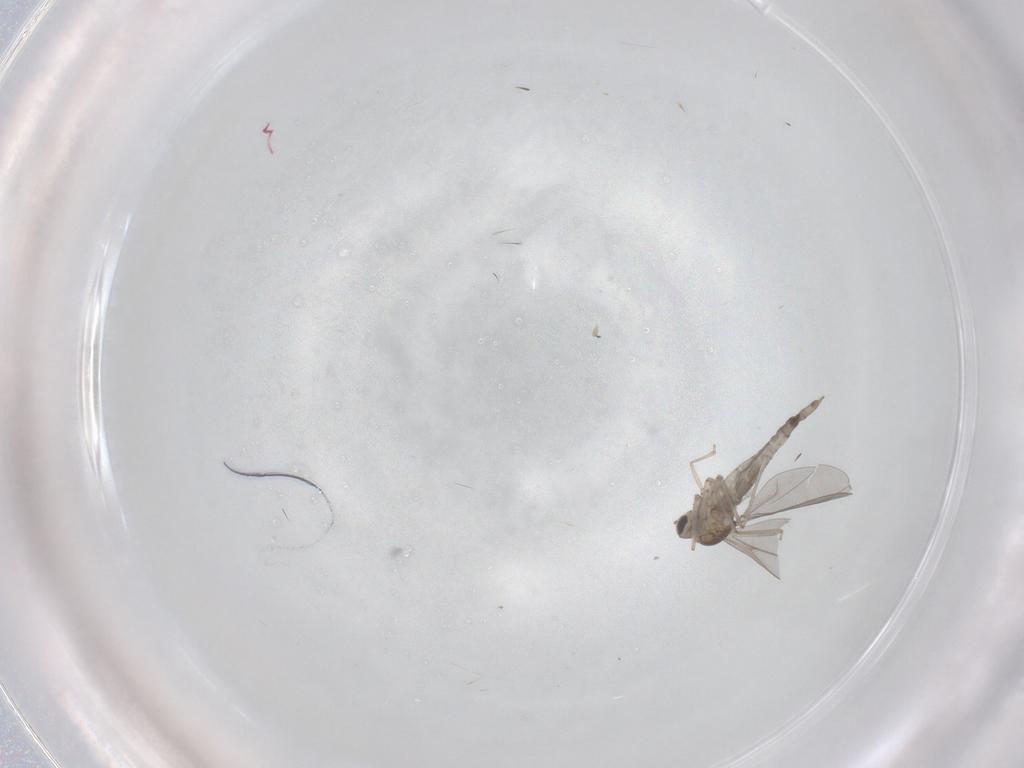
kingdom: Animalia
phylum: Arthropoda
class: Insecta
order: Diptera
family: Cecidomyiidae
